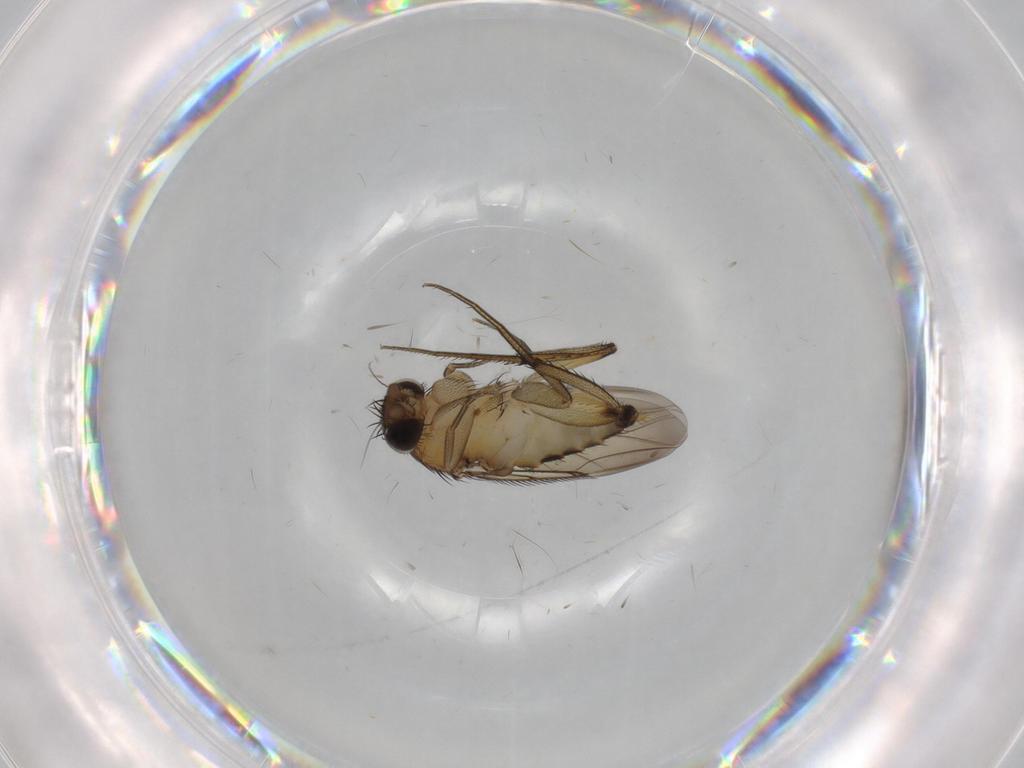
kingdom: Animalia
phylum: Arthropoda
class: Insecta
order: Diptera
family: Phoridae
